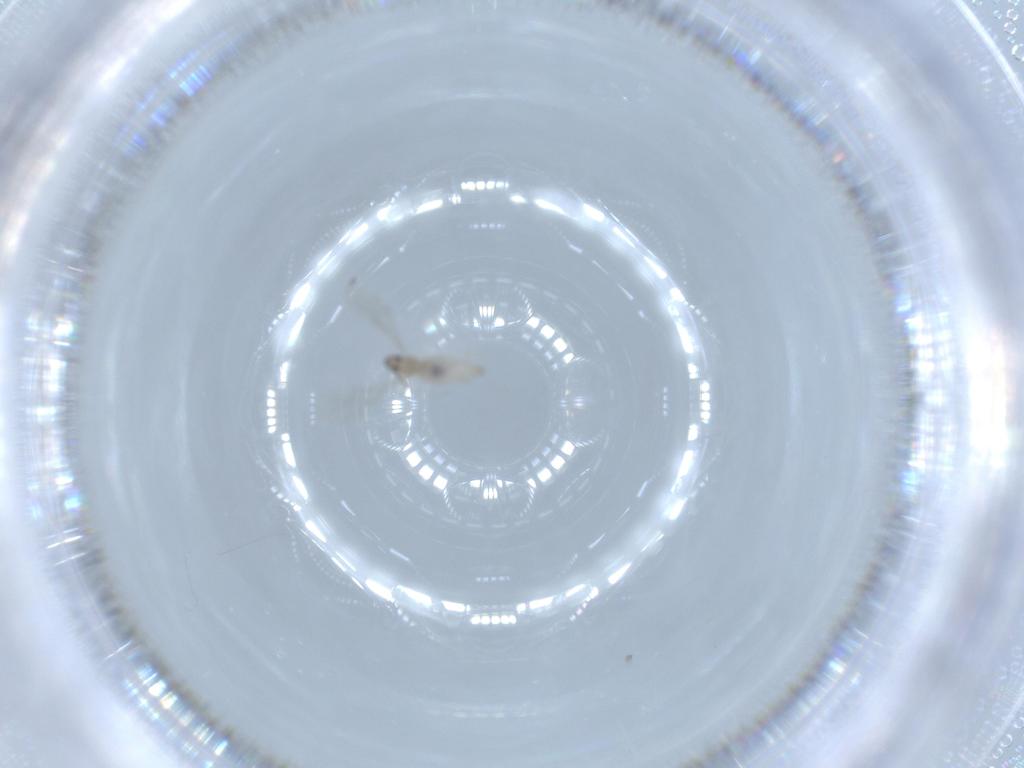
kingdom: Animalia
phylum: Arthropoda
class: Insecta
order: Diptera
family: Cecidomyiidae
